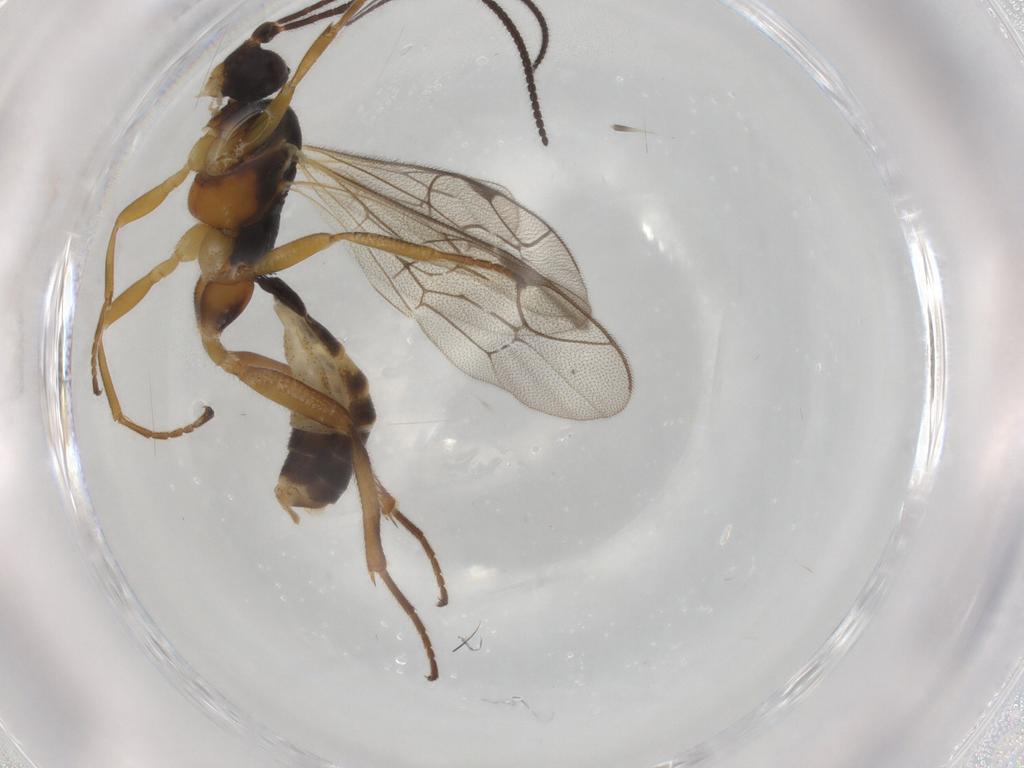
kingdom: Animalia
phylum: Arthropoda
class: Insecta
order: Hymenoptera
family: Ichneumonidae
